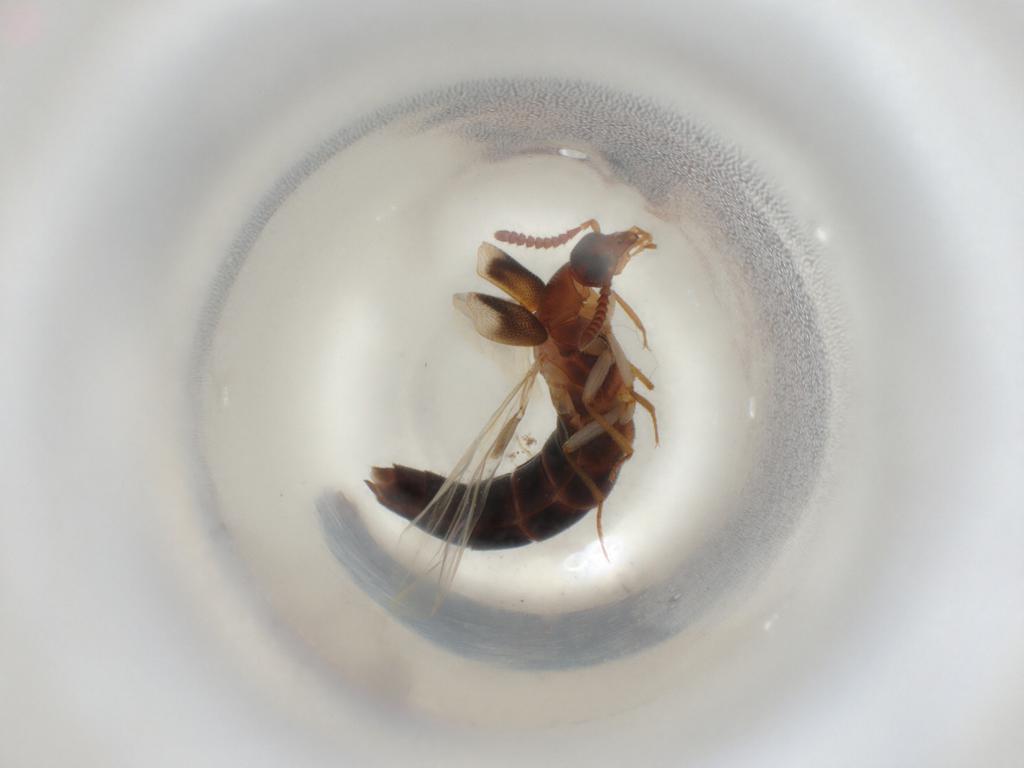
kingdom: Animalia
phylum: Arthropoda
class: Insecta
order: Coleoptera
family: Staphylinidae
